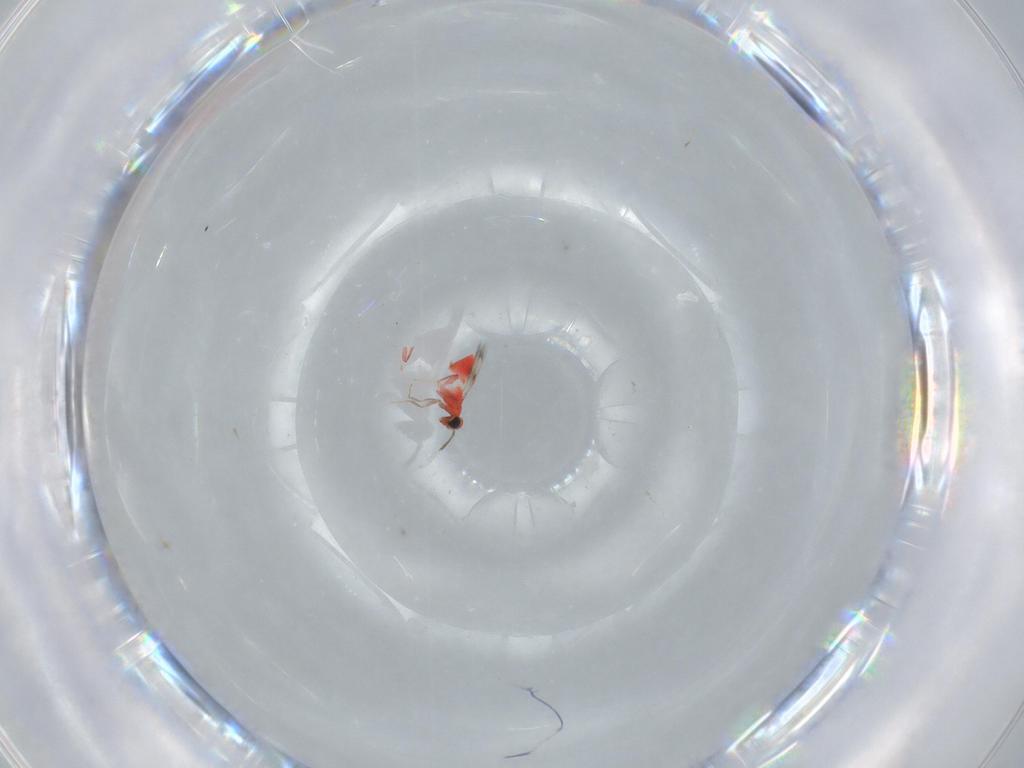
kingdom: Animalia
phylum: Arthropoda
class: Insecta
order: Hymenoptera
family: Trichogrammatidae
